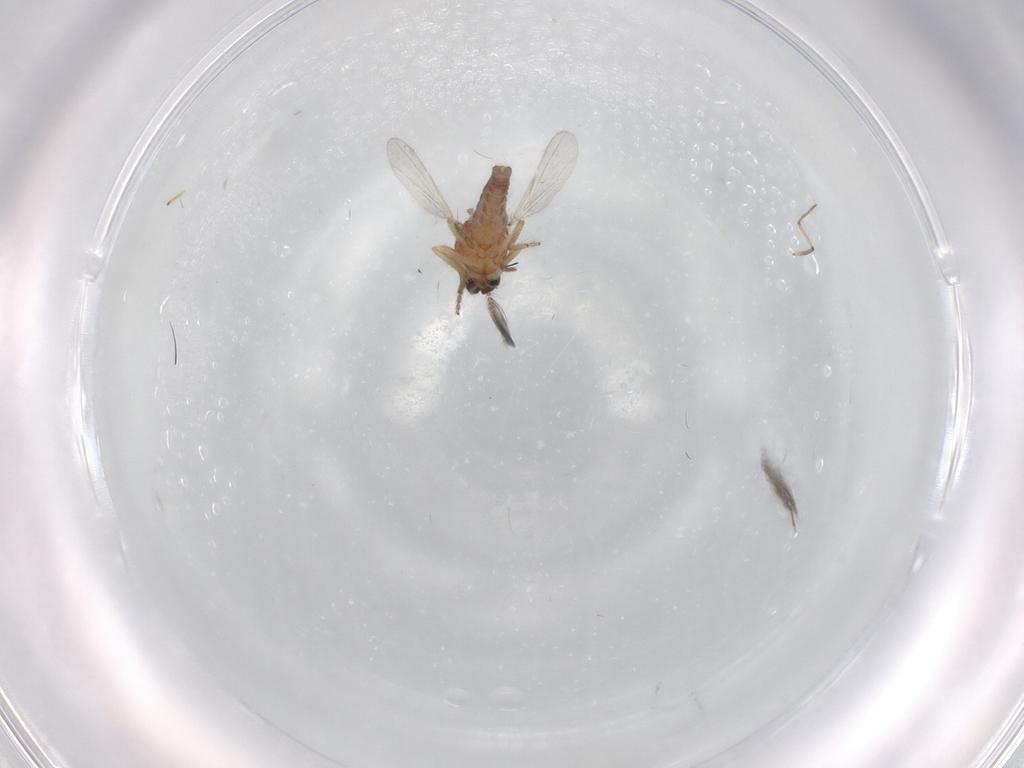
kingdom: Animalia
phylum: Arthropoda
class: Insecta
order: Diptera
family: Ceratopogonidae
